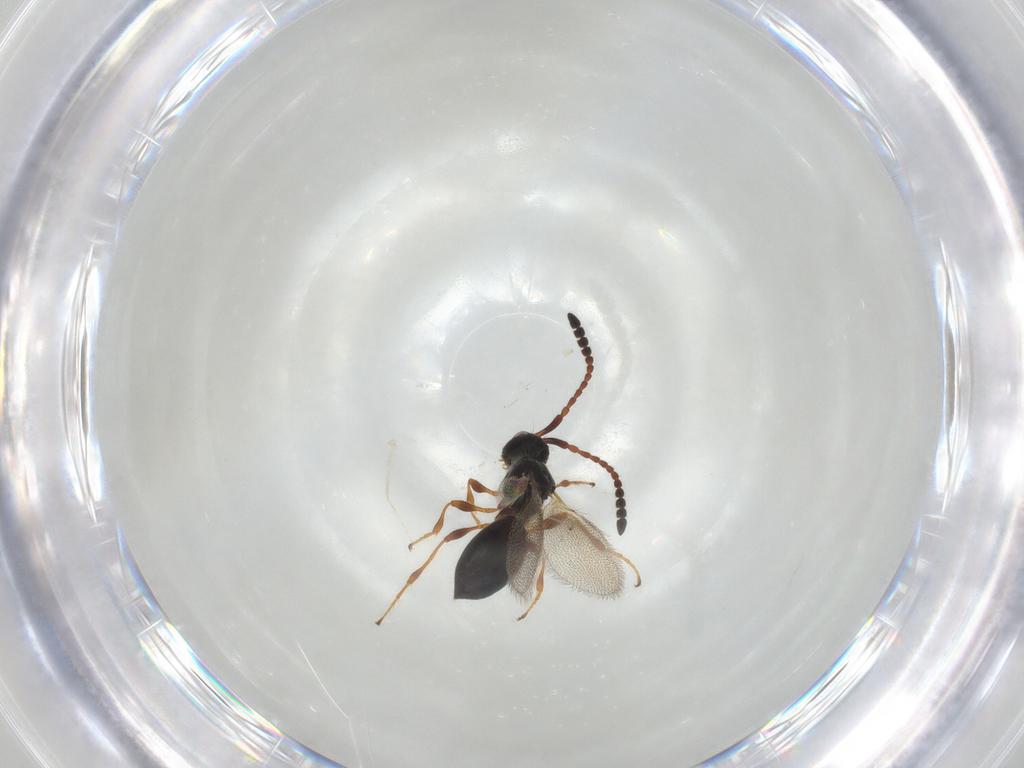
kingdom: Animalia
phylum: Arthropoda
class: Insecta
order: Hymenoptera
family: Diapriidae
